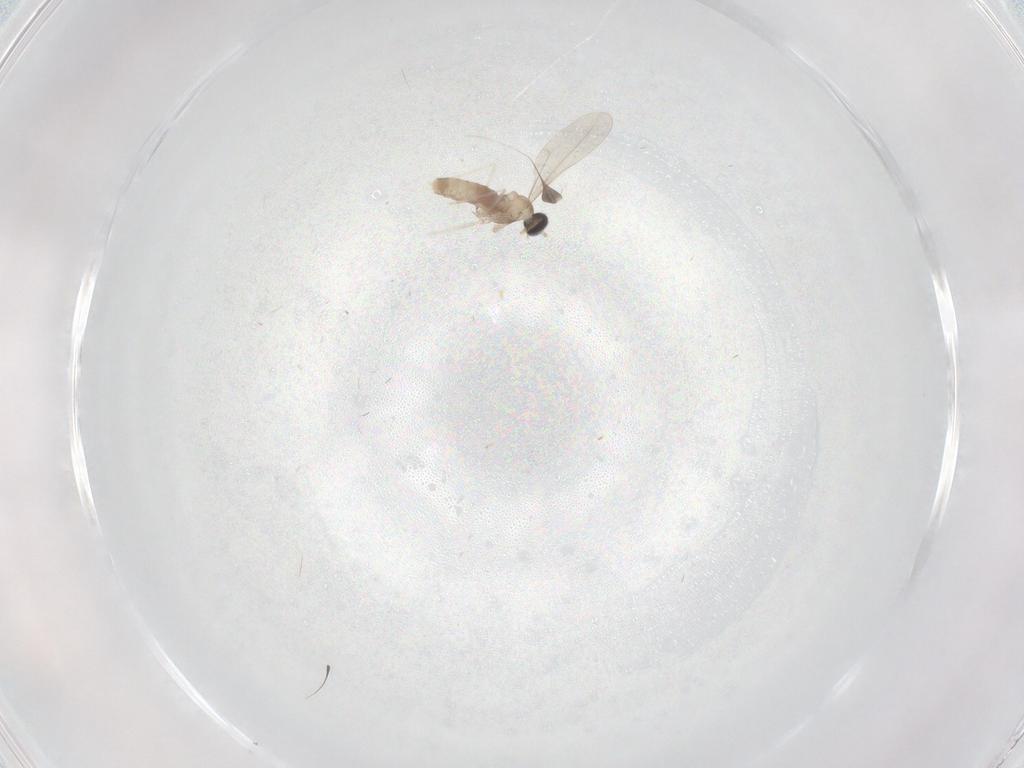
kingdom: Animalia
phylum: Arthropoda
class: Insecta
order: Diptera
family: Cecidomyiidae
